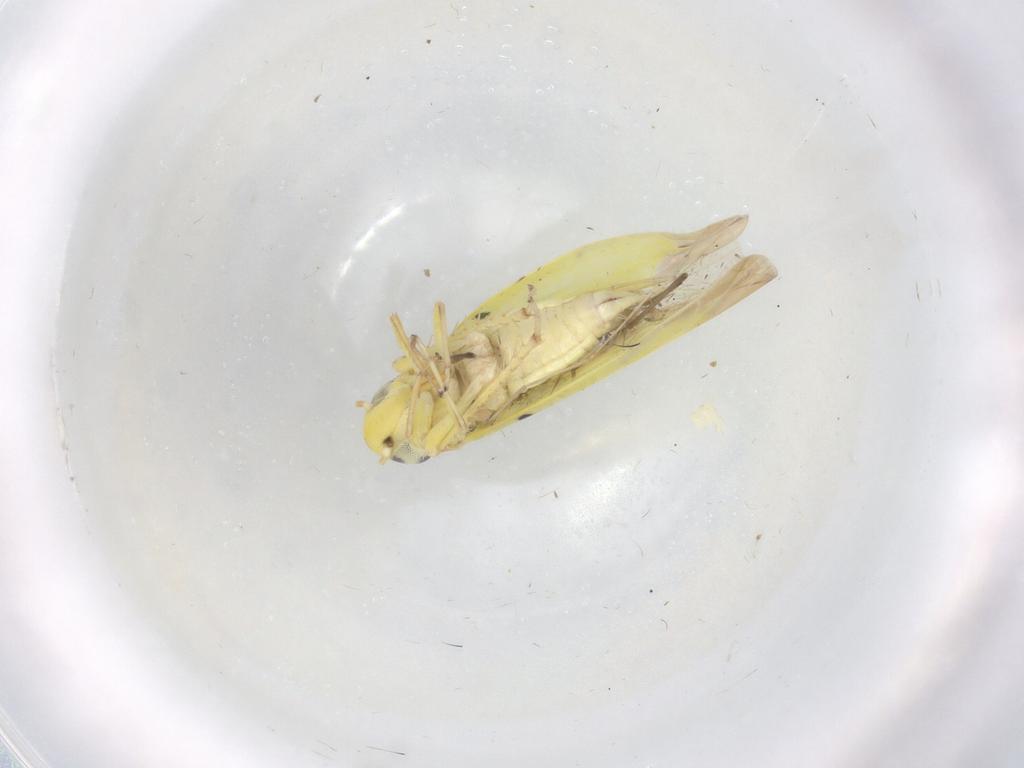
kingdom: Animalia
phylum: Arthropoda
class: Insecta
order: Hemiptera
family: Cicadellidae
